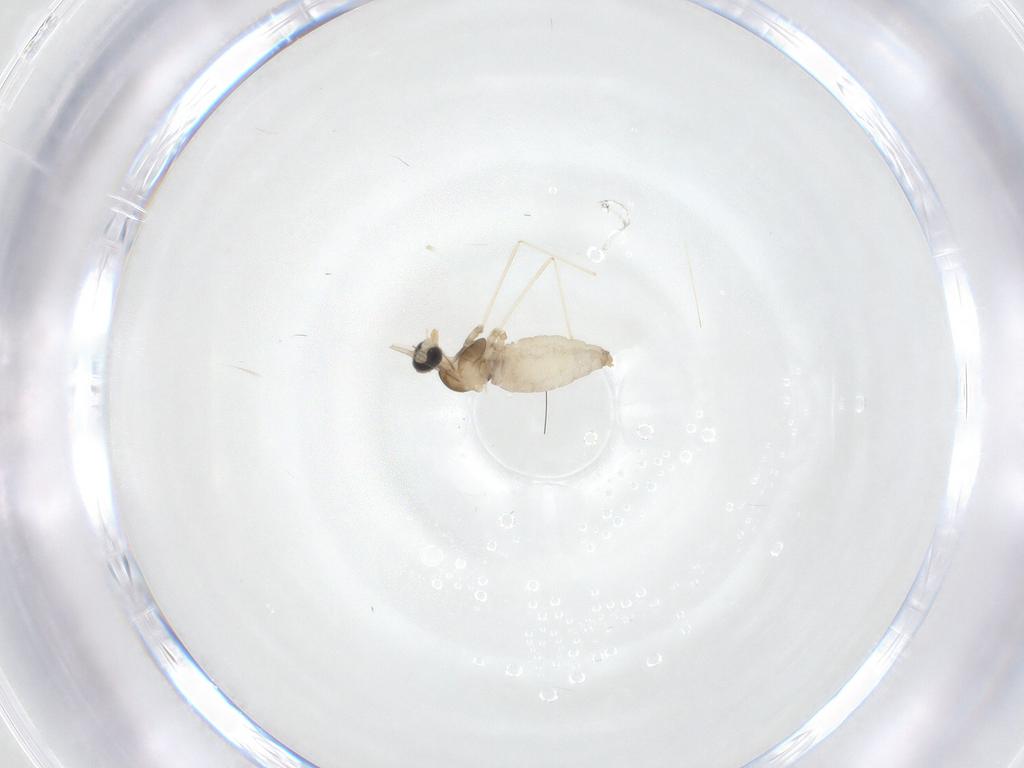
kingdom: Animalia
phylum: Arthropoda
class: Insecta
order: Diptera
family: Cecidomyiidae
